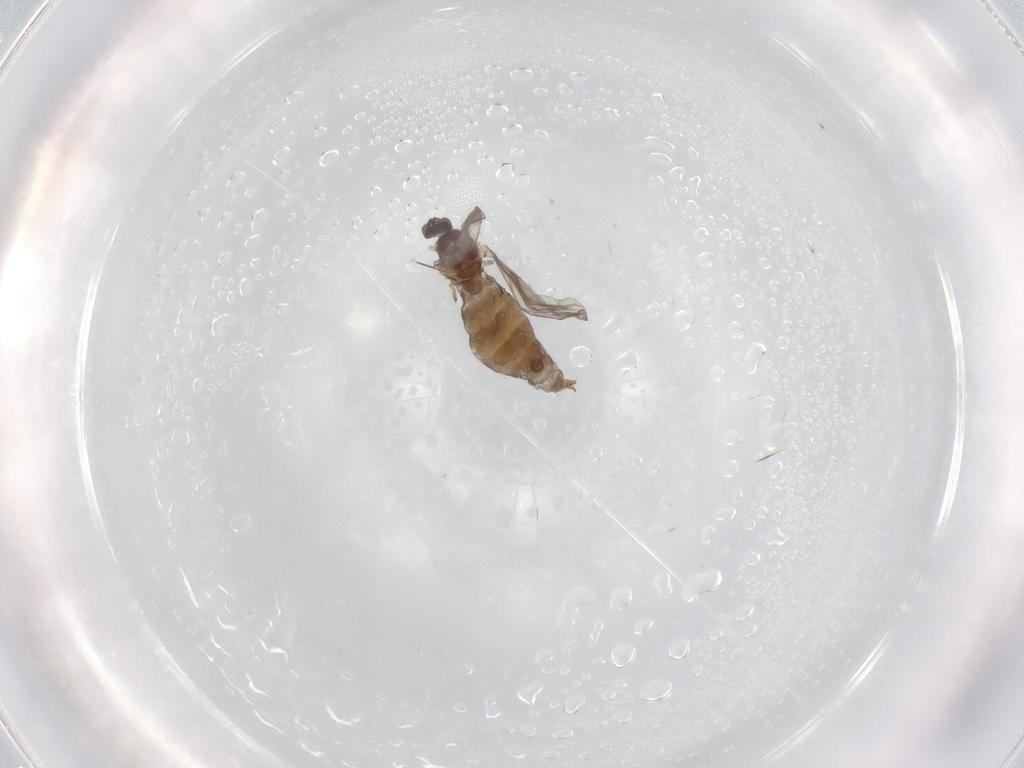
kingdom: Animalia
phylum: Arthropoda
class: Insecta
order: Diptera
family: Cecidomyiidae
